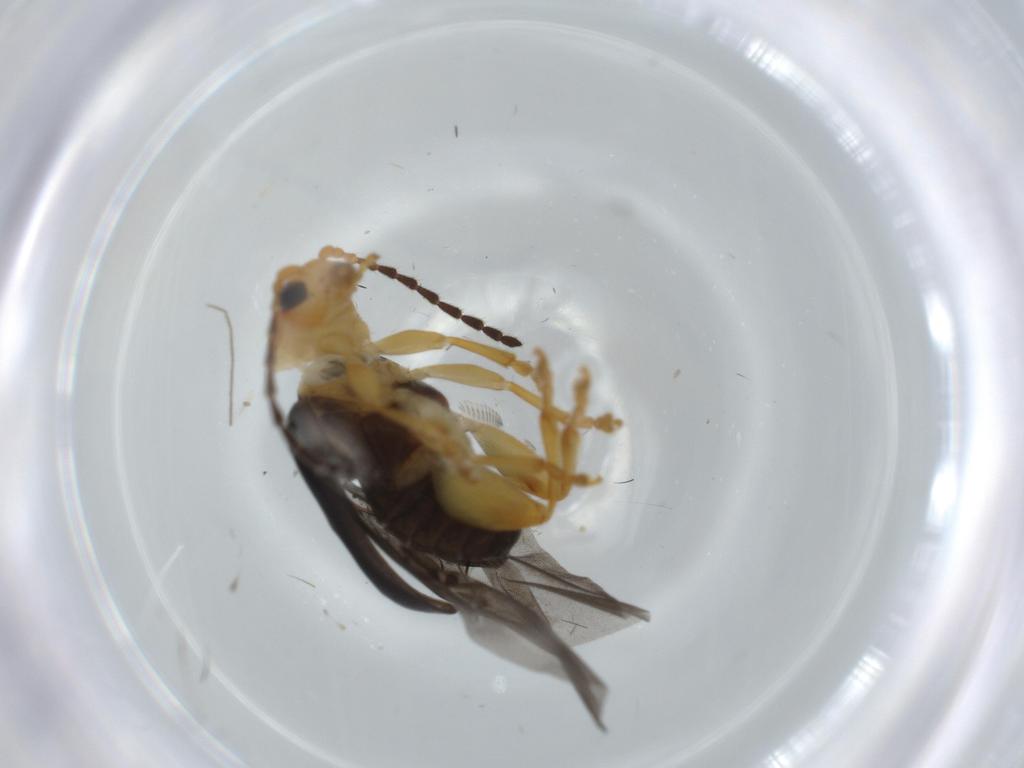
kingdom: Animalia
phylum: Arthropoda
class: Insecta
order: Coleoptera
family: Chrysomelidae
